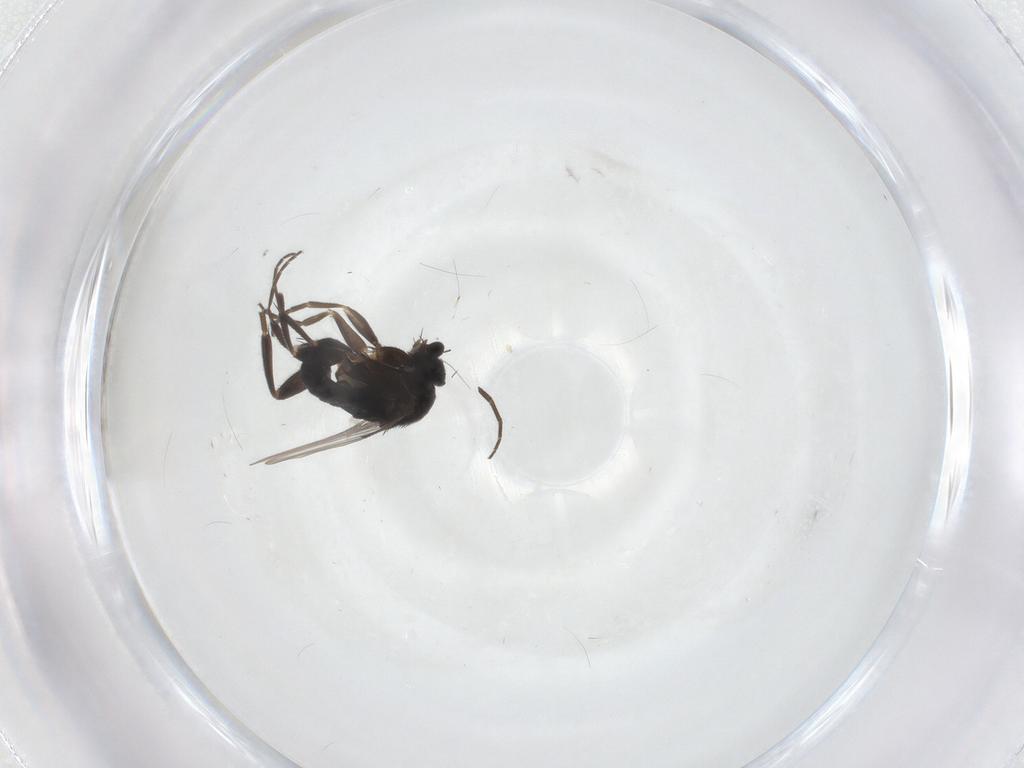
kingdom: Animalia
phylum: Arthropoda
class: Insecta
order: Diptera
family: Phoridae
